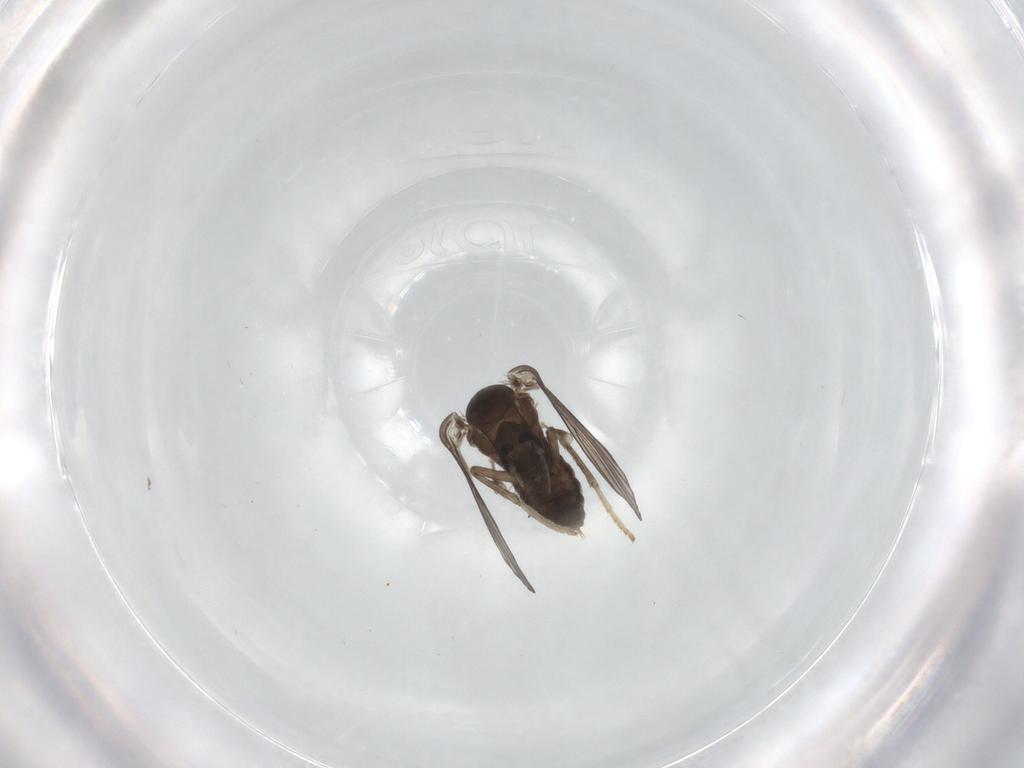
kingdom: Animalia
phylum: Arthropoda
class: Insecta
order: Diptera
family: Psychodidae
